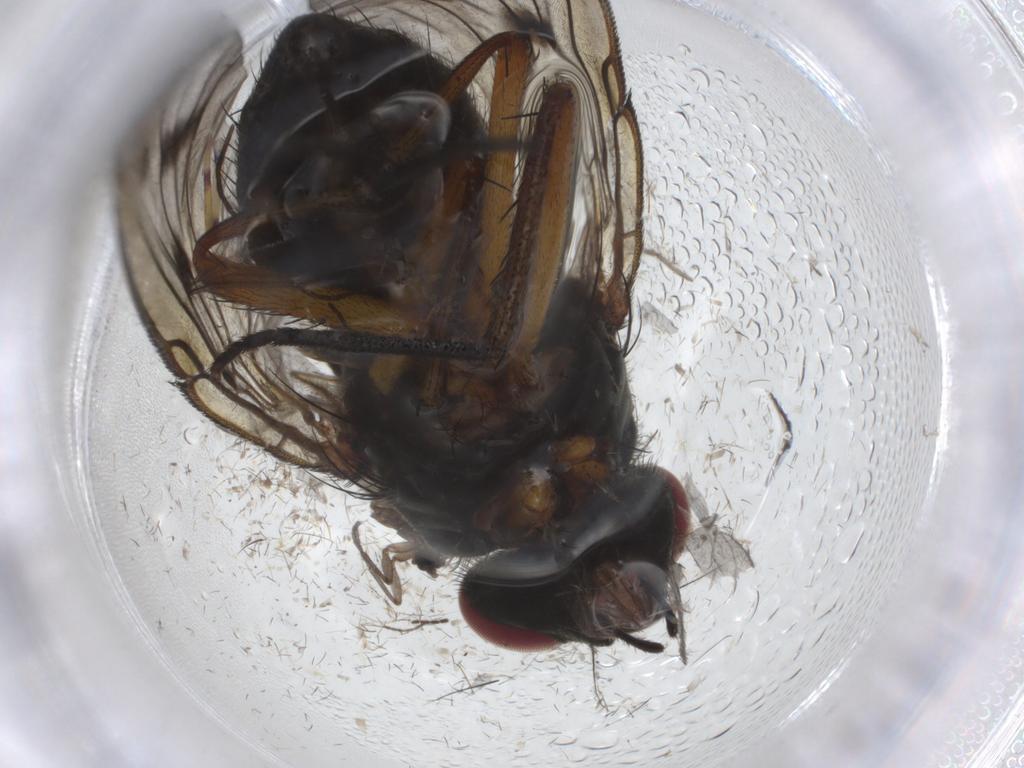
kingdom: Animalia
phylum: Arthropoda
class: Insecta
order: Diptera
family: Muscidae
